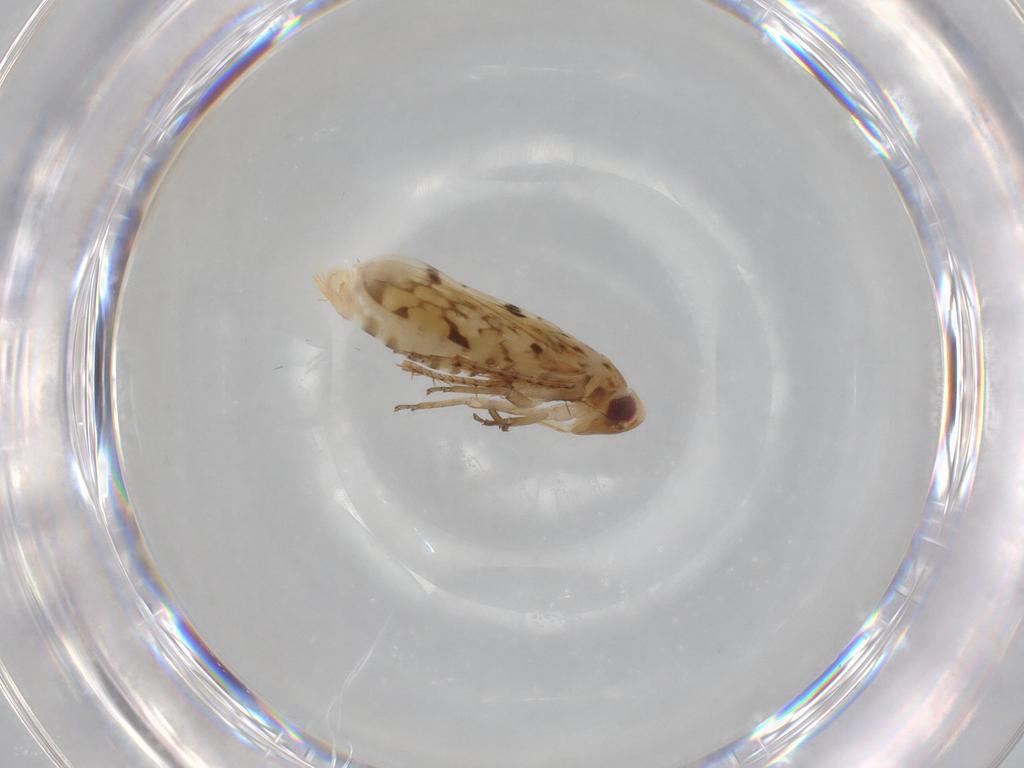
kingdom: Animalia
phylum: Arthropoda
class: Insecta
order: Hemiptera
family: Cicadellidae
